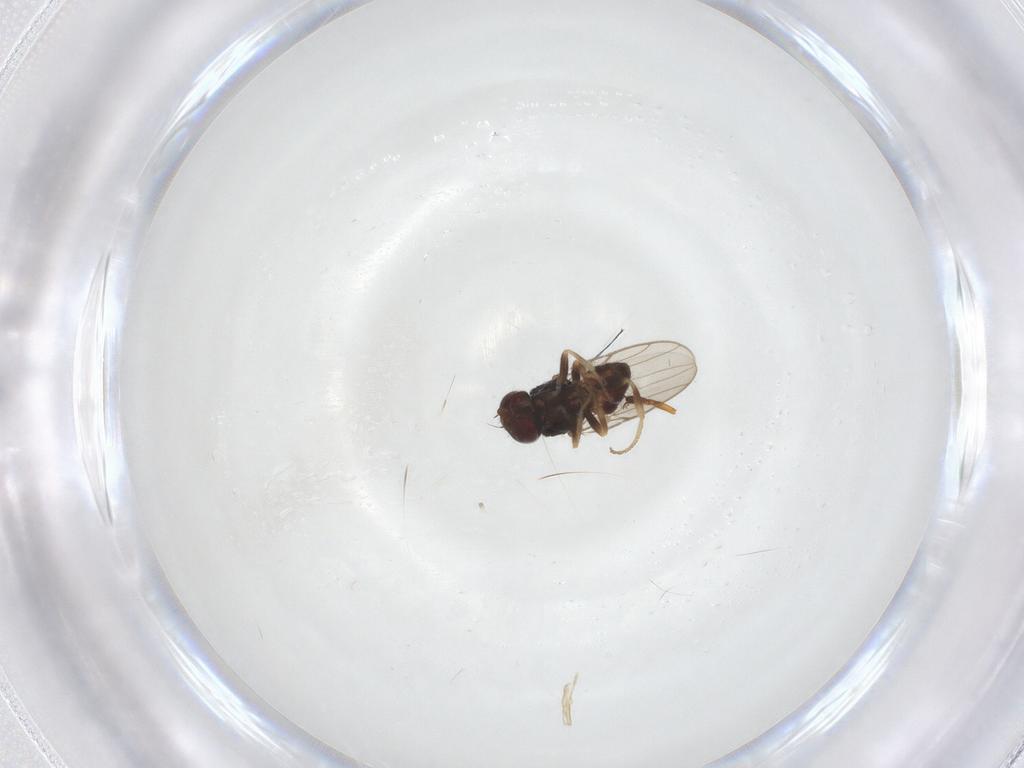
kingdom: Animalia
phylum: Arthropoda
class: Insecta
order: Diptera
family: Chloropidae
